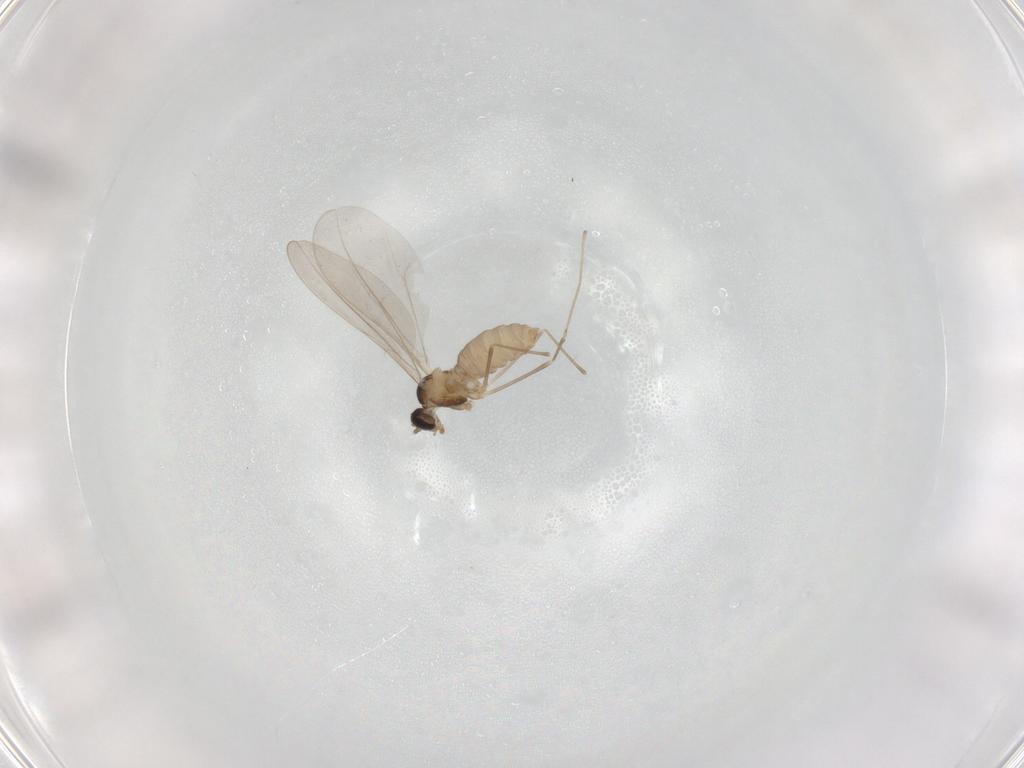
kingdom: Animalia
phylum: Arthropoda
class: Insecta
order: Diptera
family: Cecidomyiidae
